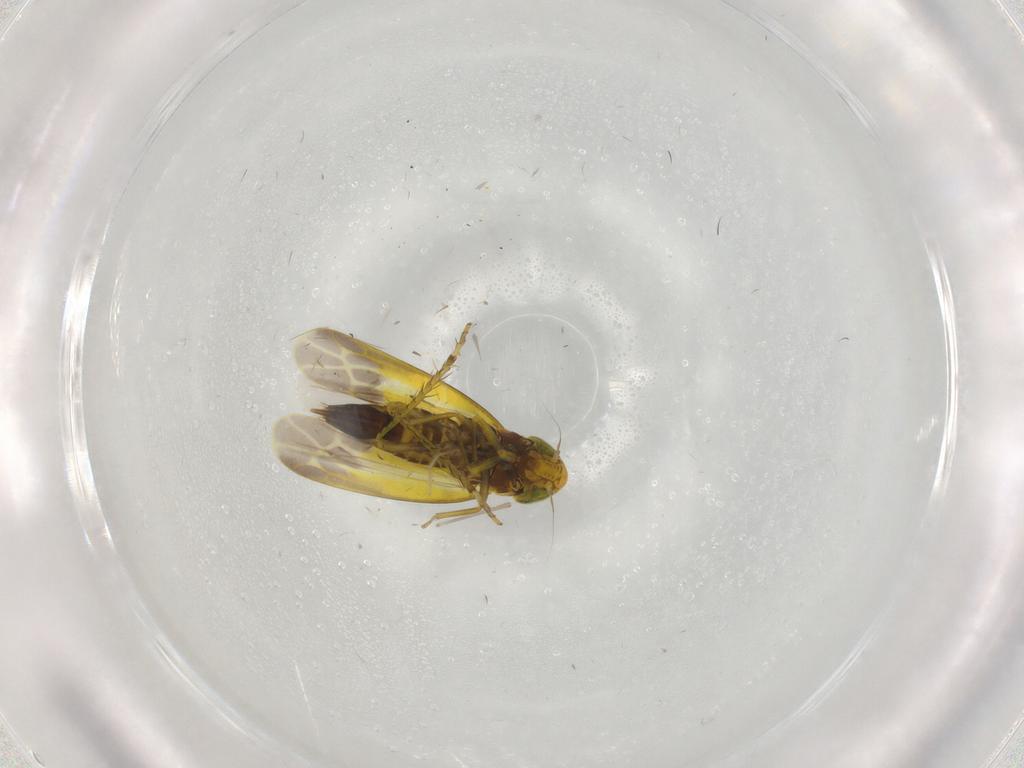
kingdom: Animalia
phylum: Arthropoda
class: Insecta
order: Hemiptera
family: Cicadellidae
